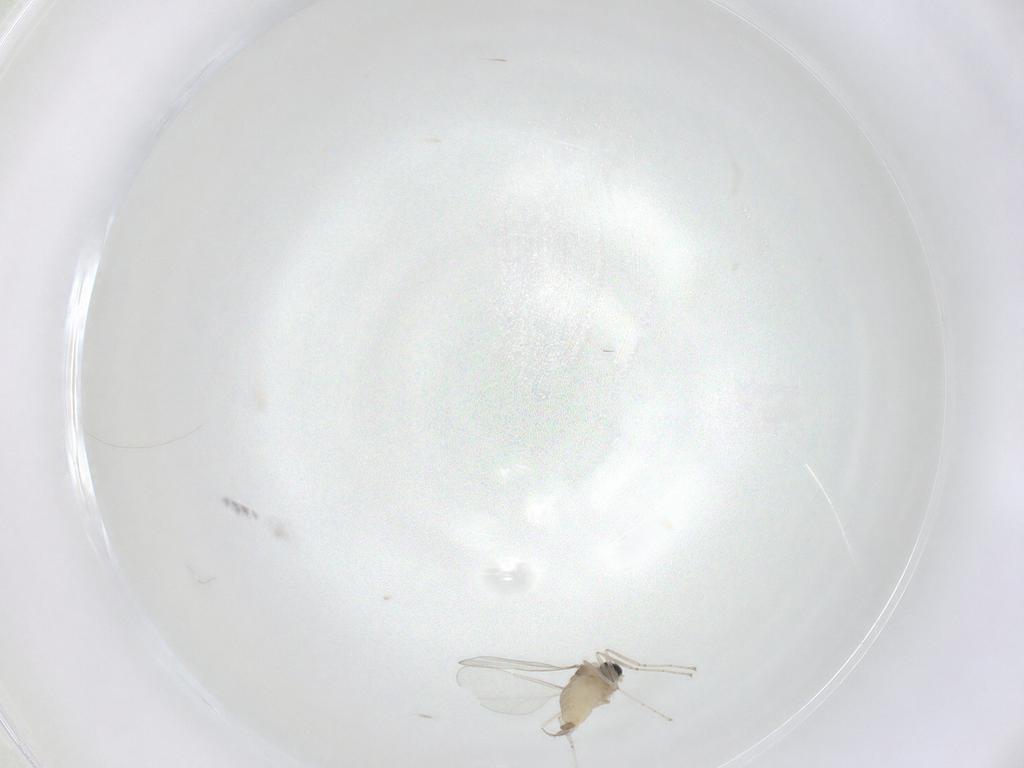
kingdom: Animalia
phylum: Arthropoda
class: Insecta
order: Diptera
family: Cecidomyiidae
